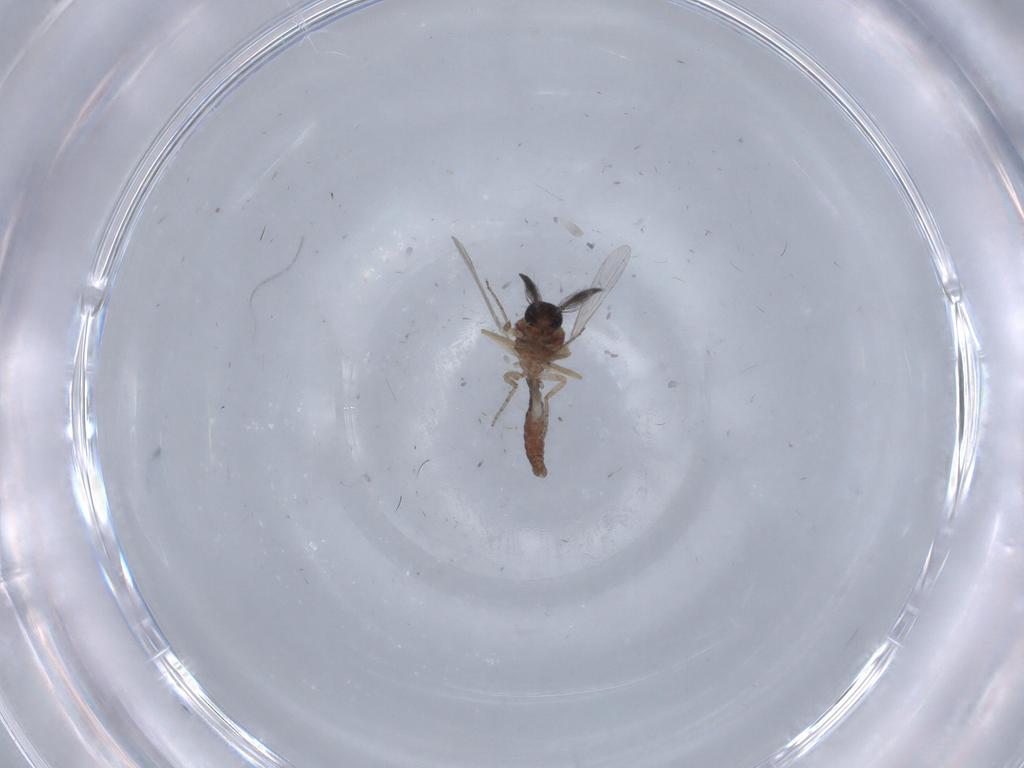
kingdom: Animalia
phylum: Arthropoda
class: Insecta
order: Diptera
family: Ceratopogonidae
